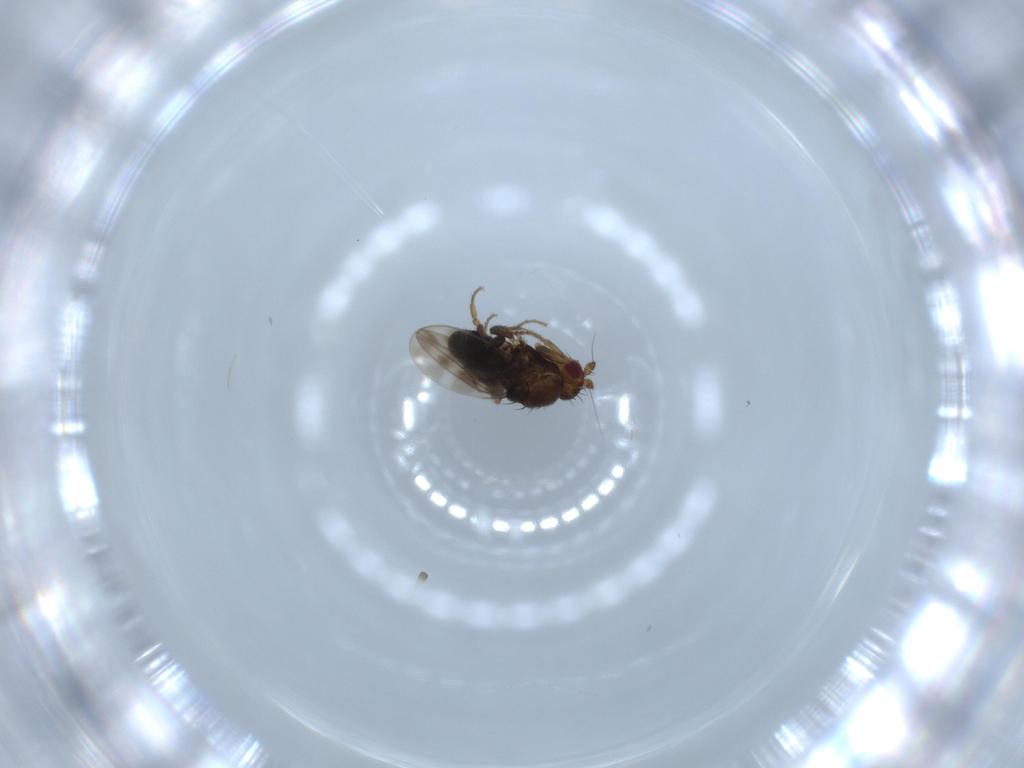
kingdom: Animalia
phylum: Arthropoda
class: Insecta
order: Diptera
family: Sphaeroceridae
